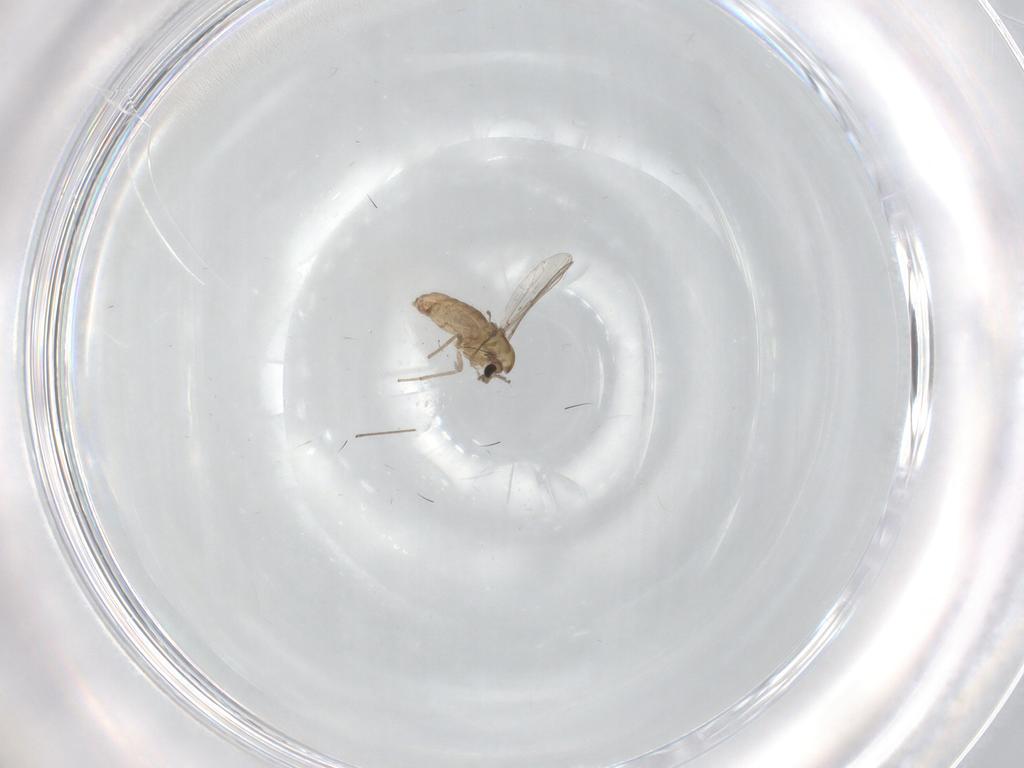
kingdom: Animalia
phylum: Arthropoda
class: Insecta
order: Diptera
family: Chironomidae
